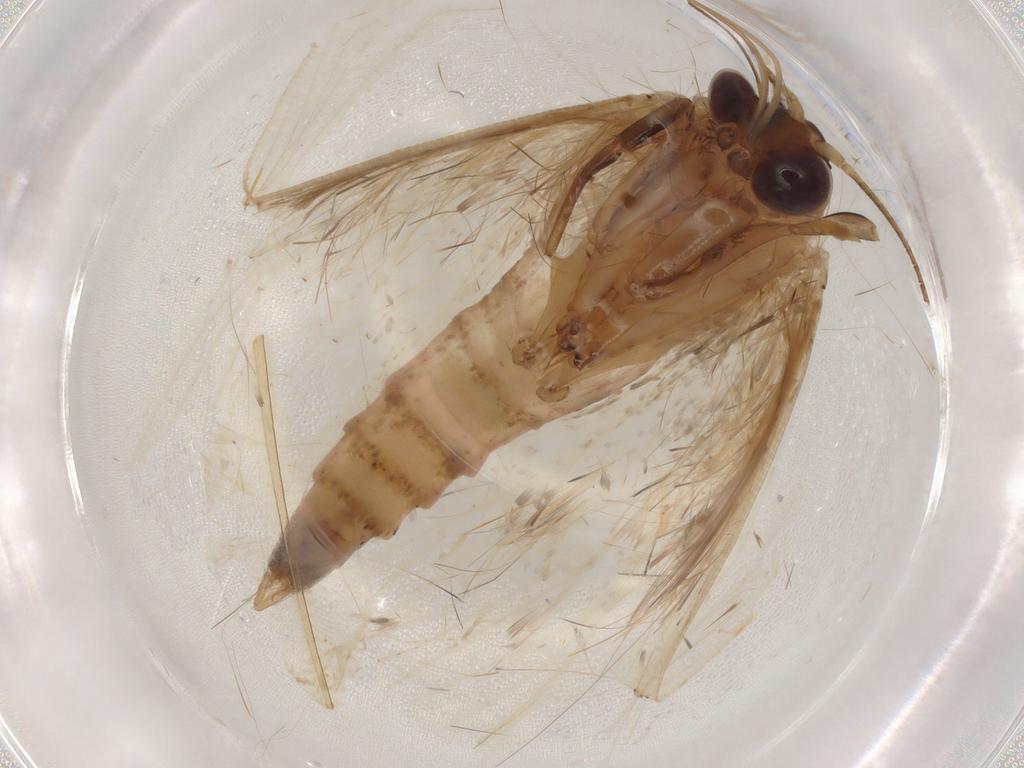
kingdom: Animalia
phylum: Arthropoda
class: Insecta
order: Lepidoptera
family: Erebidae
